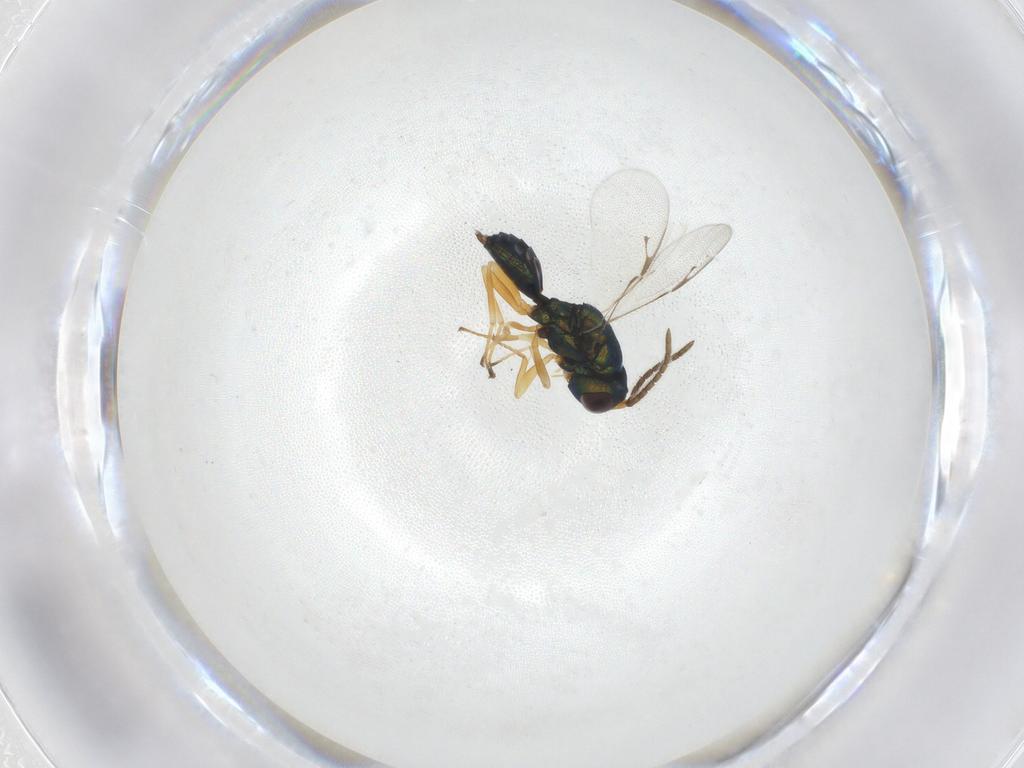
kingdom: Animalia
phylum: Arthropoda
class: Insecta
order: Hymenoptera
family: Pteromalidae
